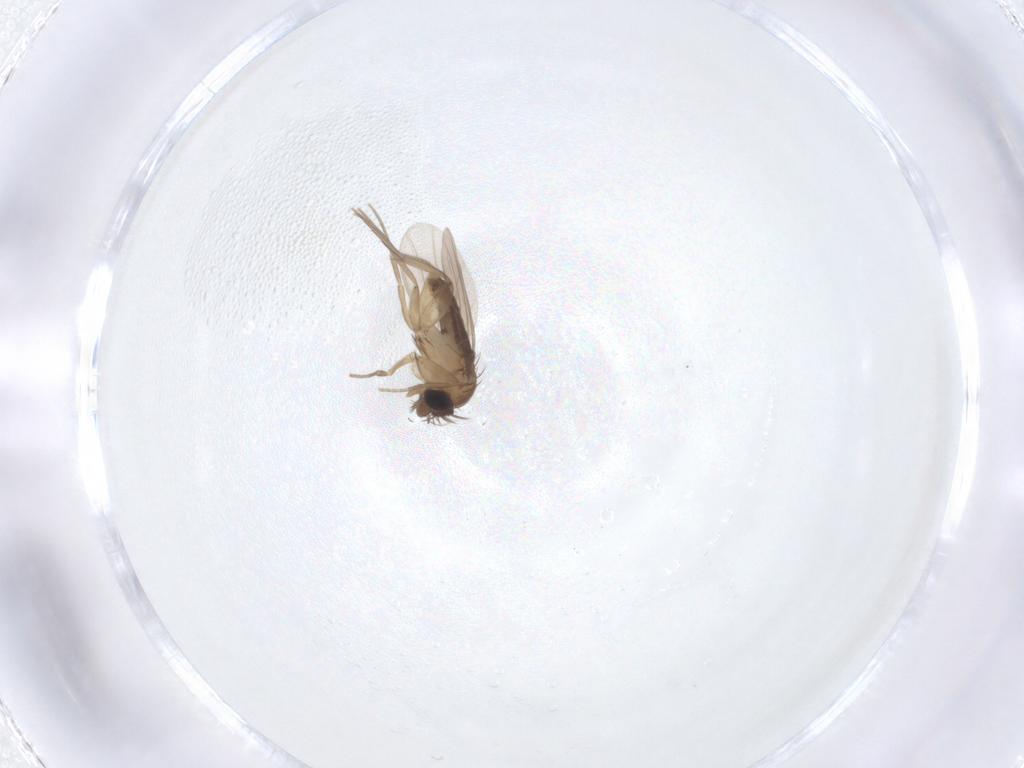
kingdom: Animalia
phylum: Arthropoda
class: Insecta
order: Diptera
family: Phoridae
